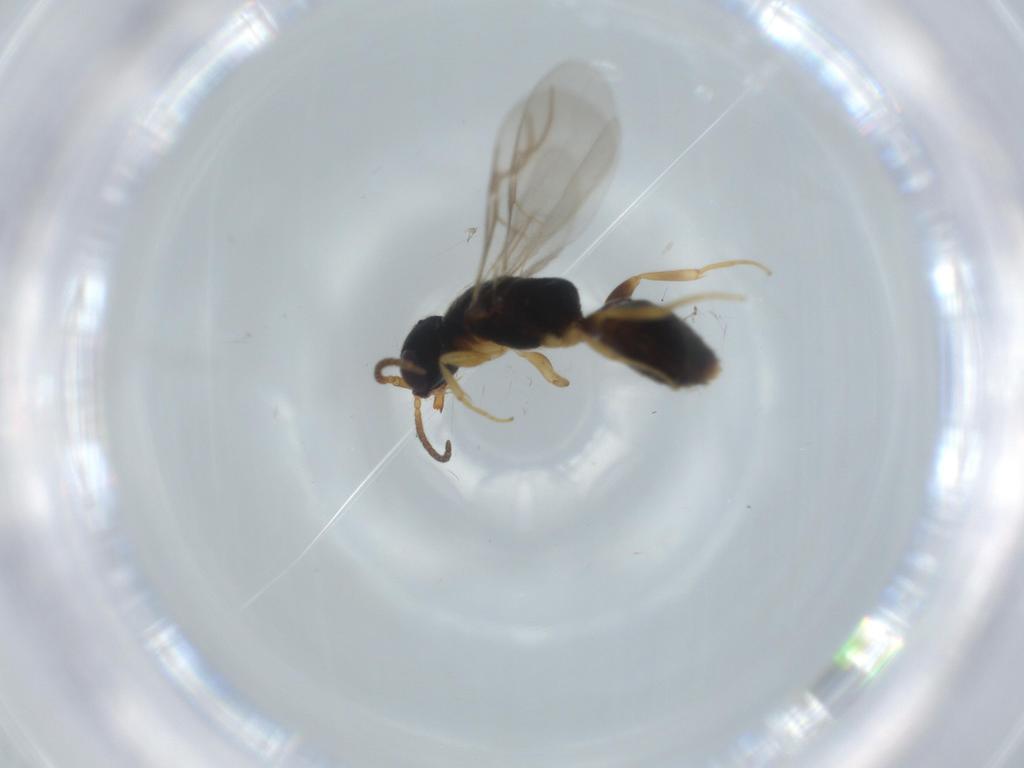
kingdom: Animalia
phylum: Arthropoda
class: Insecta
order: Hymenoptera
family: Bethylidae
